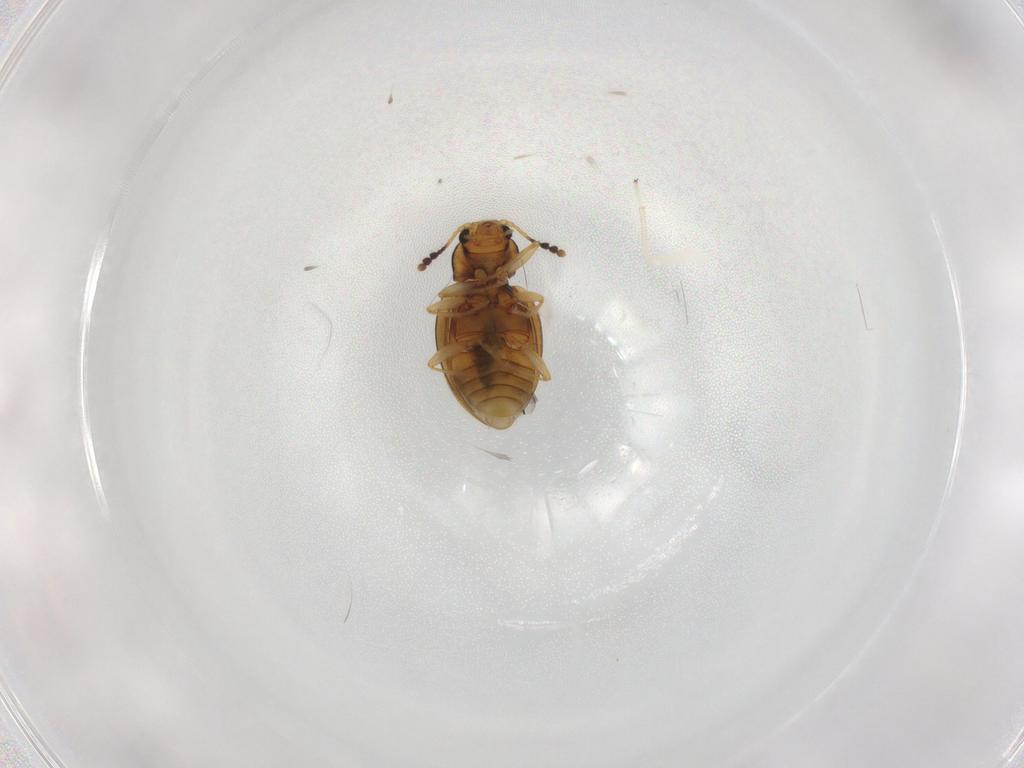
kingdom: Animalia
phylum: Arthropoda
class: Insecta
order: Coleoptera
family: Erotylidae
